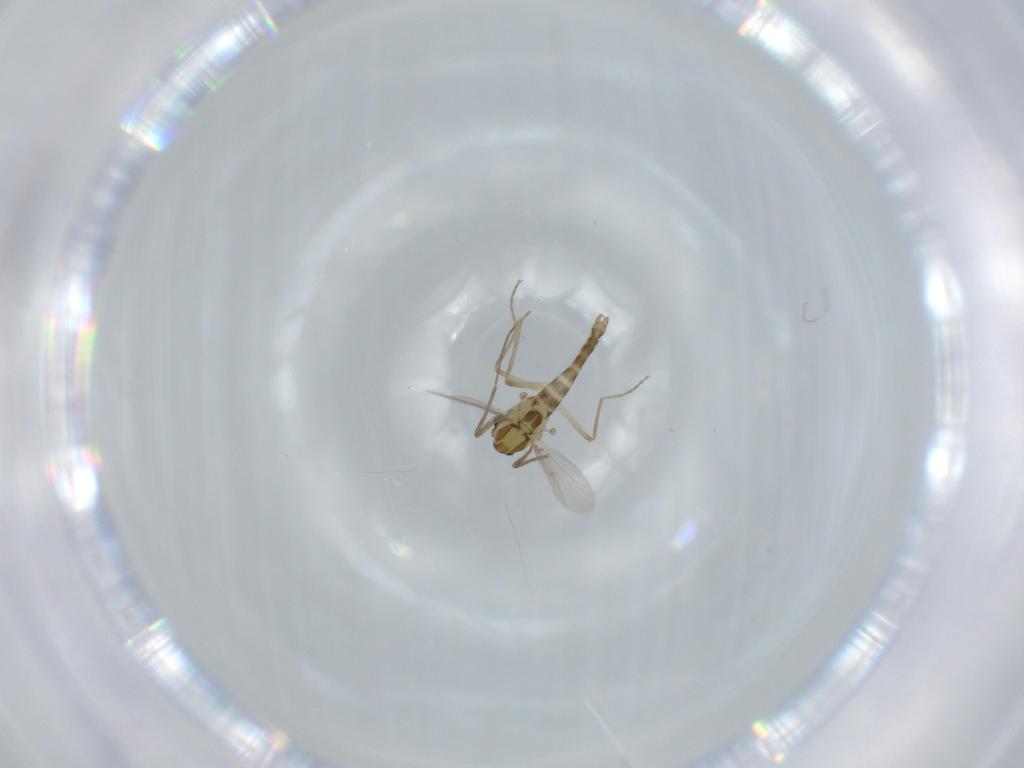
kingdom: Animalia
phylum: Arthropoda
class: Insecta
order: Diptera
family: Chironomidae
